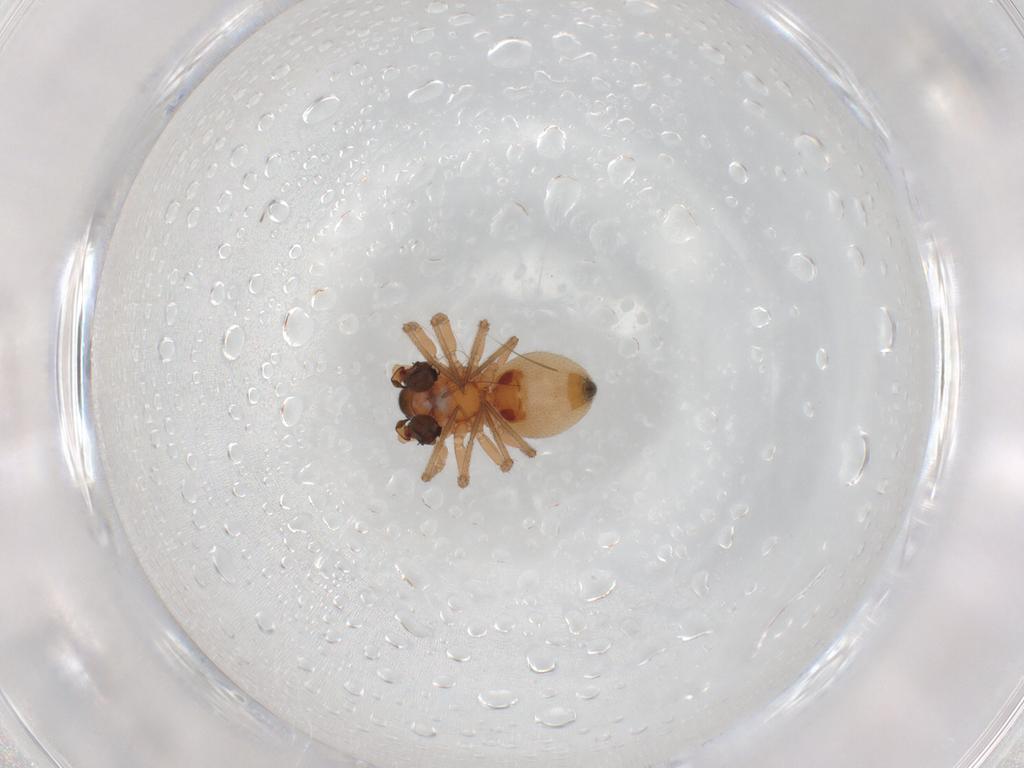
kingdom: Animalia
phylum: Arthropoda
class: Arachnida
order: Araneae
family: Linyphiidae
